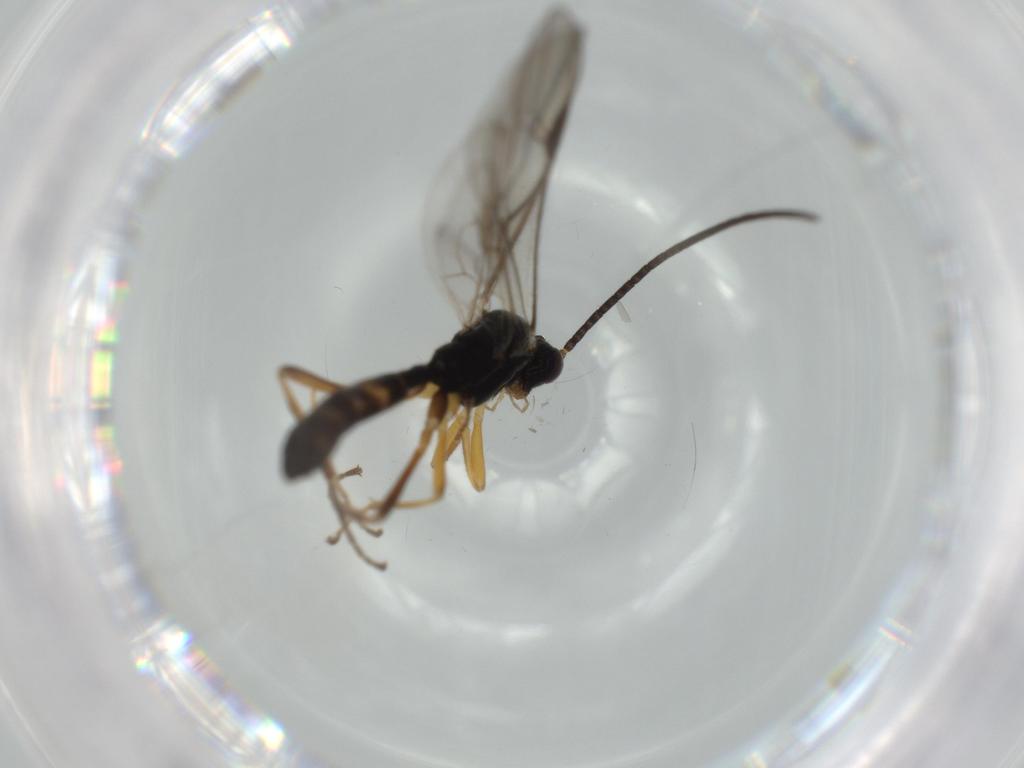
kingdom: Animalia
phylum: Arthropoda
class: Insecta
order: Hymenoptera
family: Ichneumonidae
